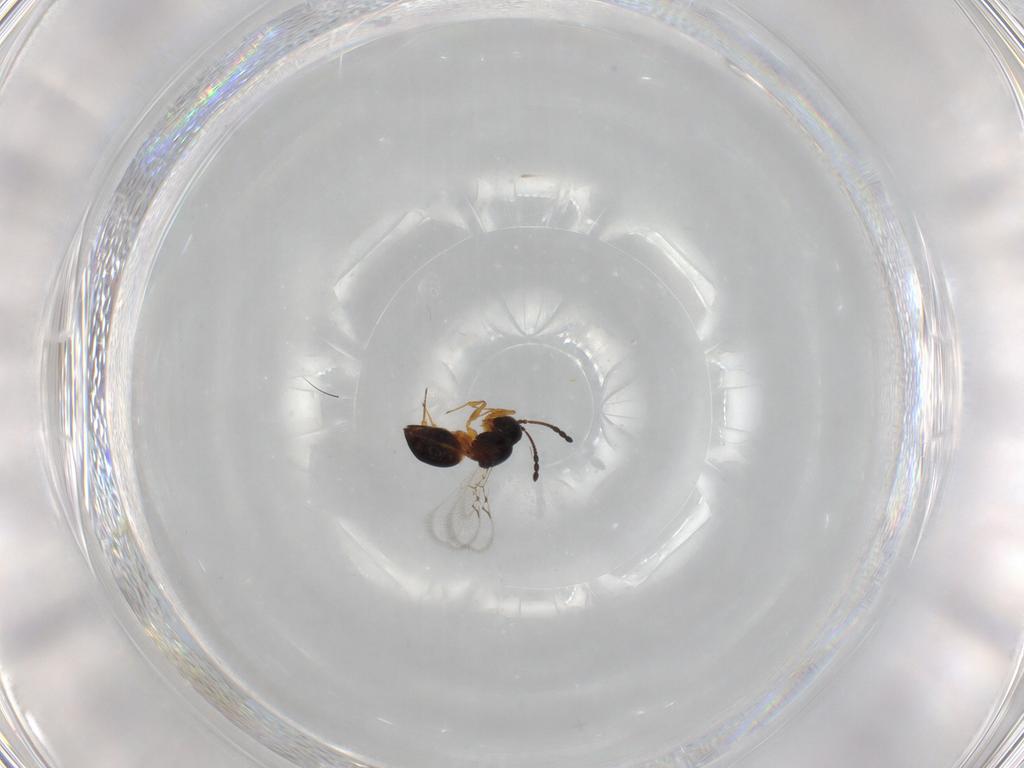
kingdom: Animalia
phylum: Arthropoda
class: Insecta
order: Hymenoptera
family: Figitidae
